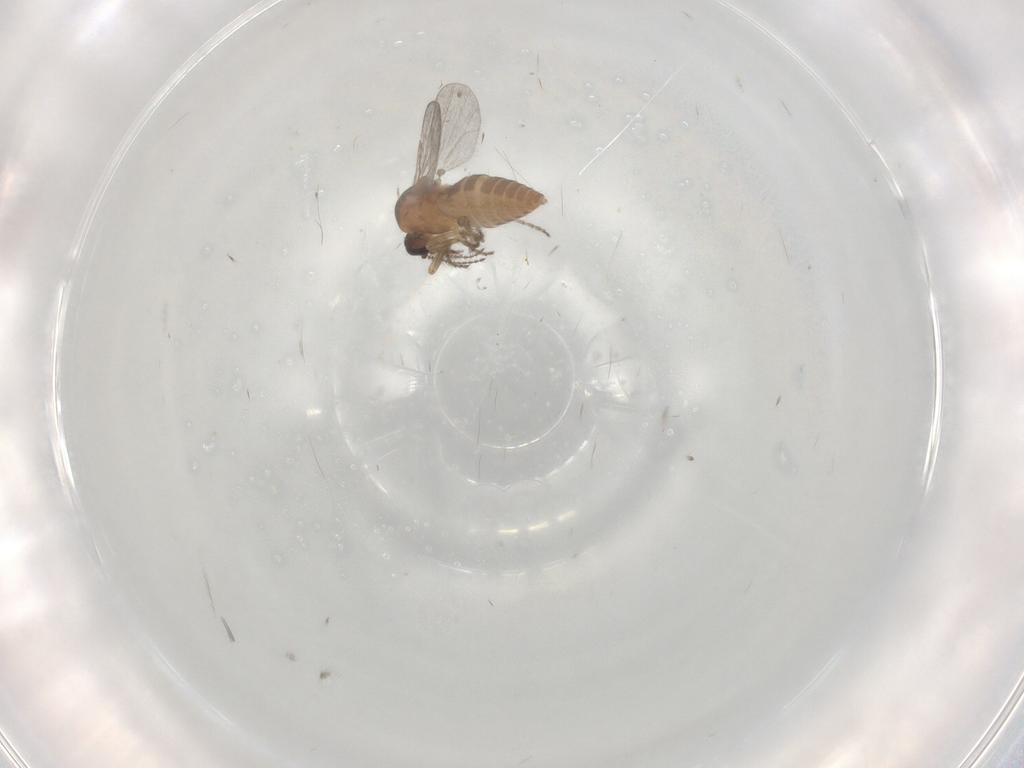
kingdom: Animalia
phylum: Arthropoda
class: Insecta
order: Diptera
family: Ceratopogonidae
